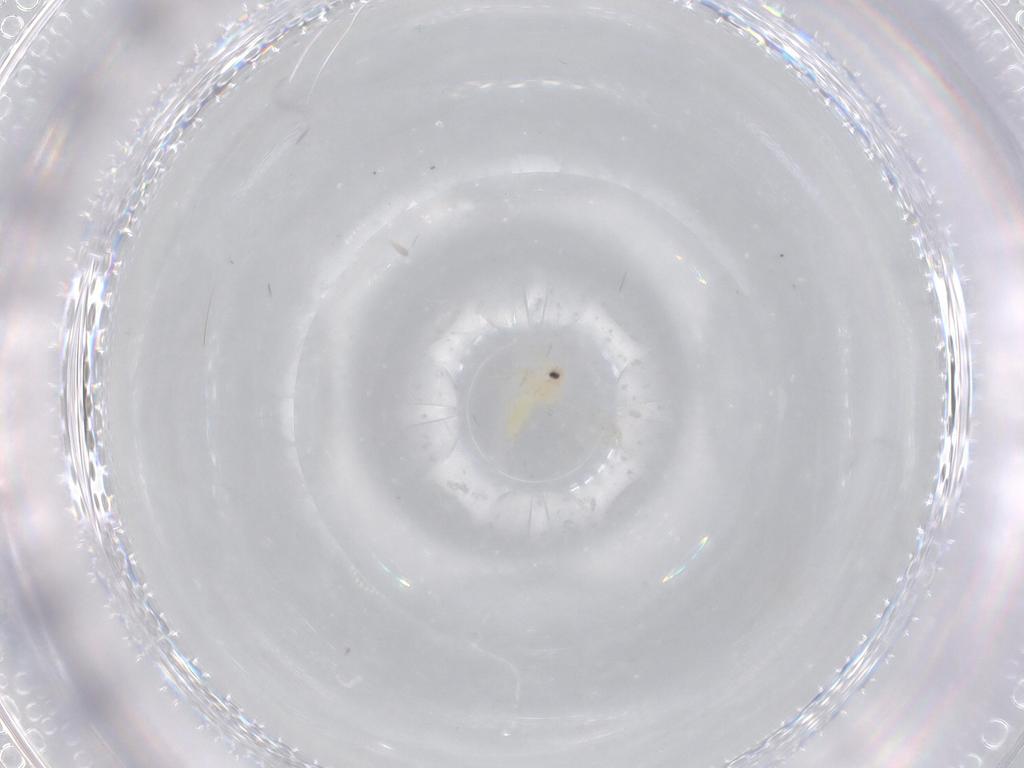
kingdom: Animalia
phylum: Arthropoda
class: Insecta
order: Hemiptera
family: Aleyrodidae
